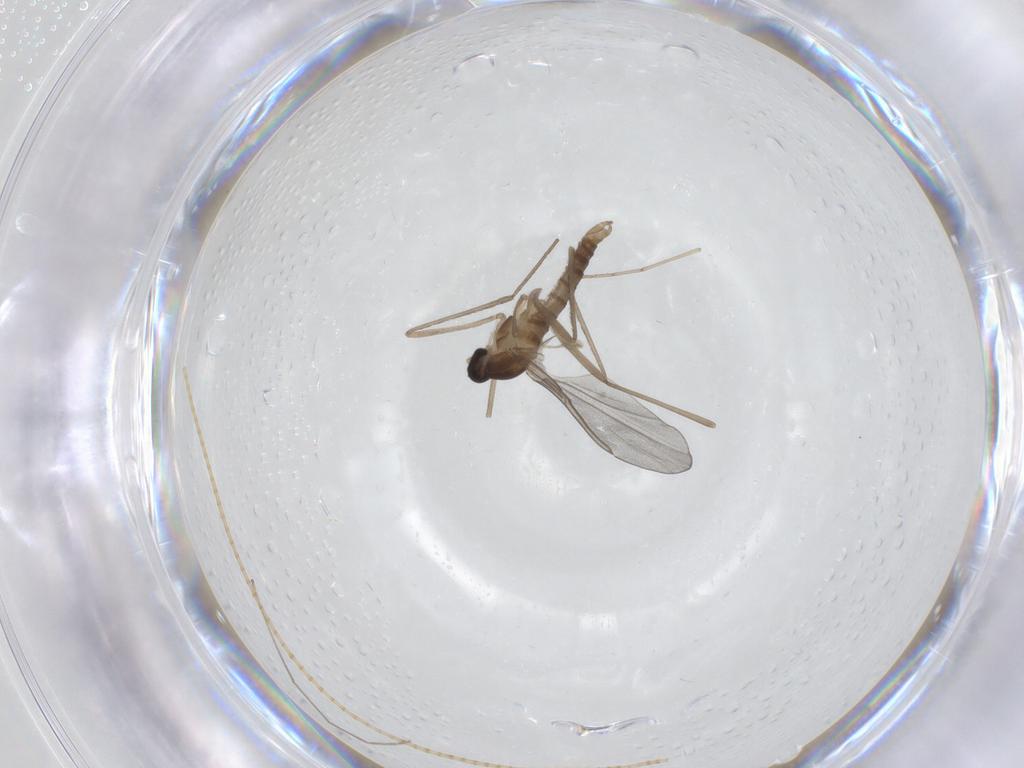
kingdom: Animalia
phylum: Arthropoda
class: Insecta
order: Diptera
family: Cecidomyiidae
